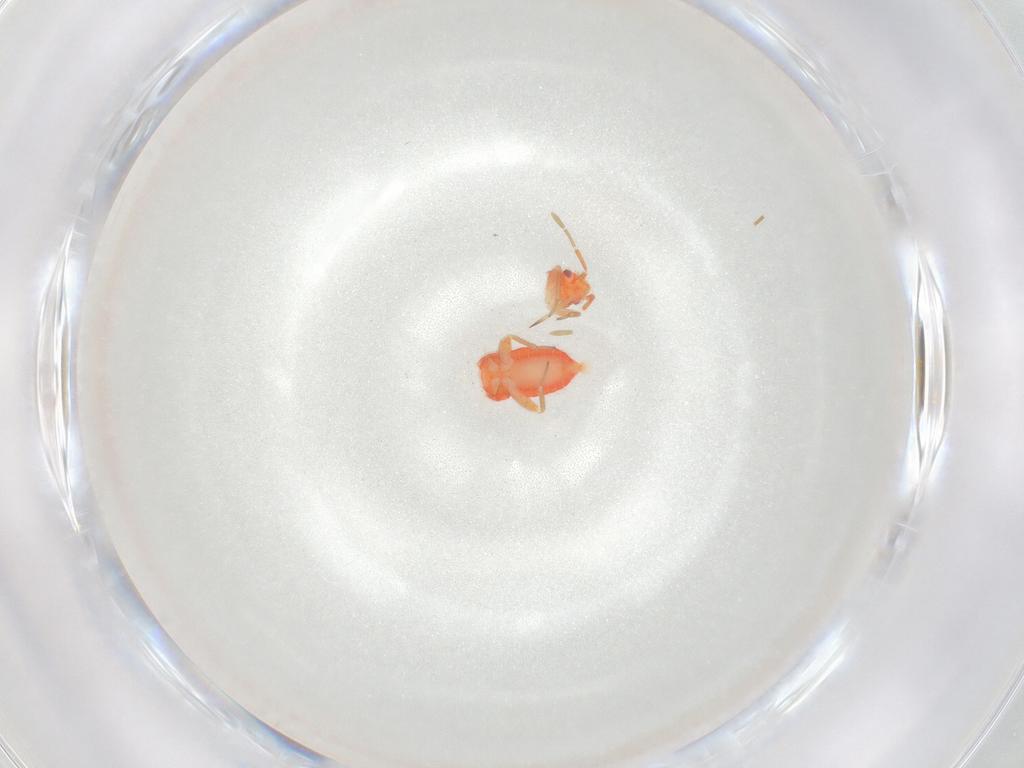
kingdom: Animalia
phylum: Arthropoda
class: Insecta
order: Hemiptera
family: Miridae
